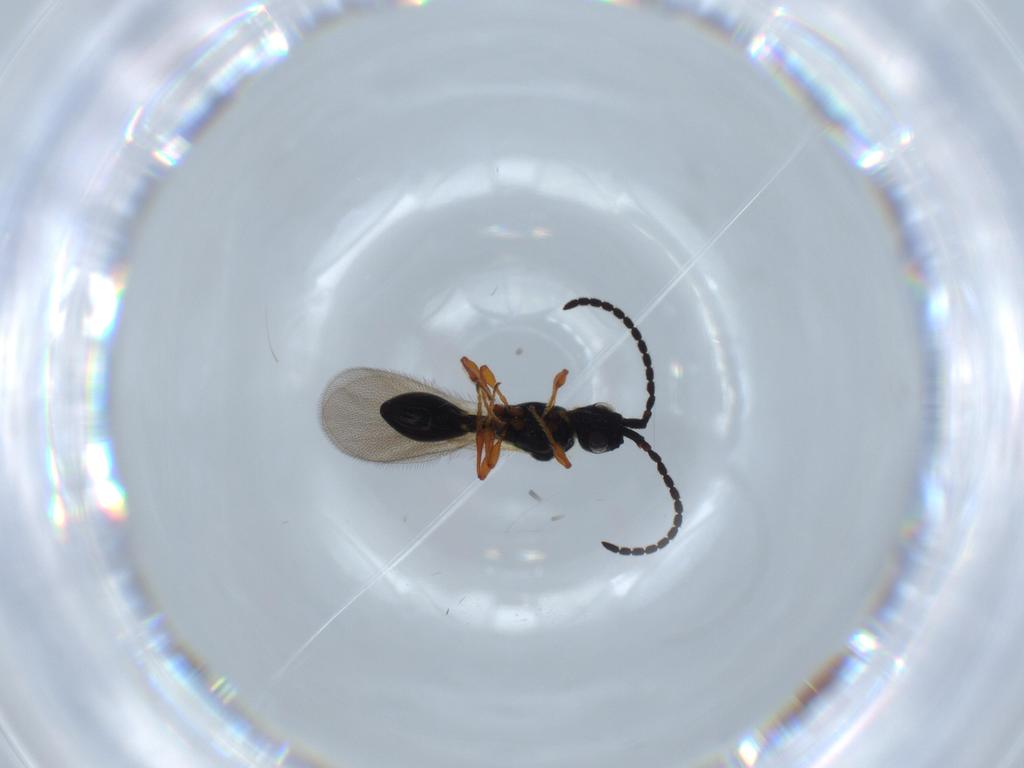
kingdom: Animalia
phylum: Arthropoda
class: Insecta
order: Hymenoptera
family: Diapriidae
